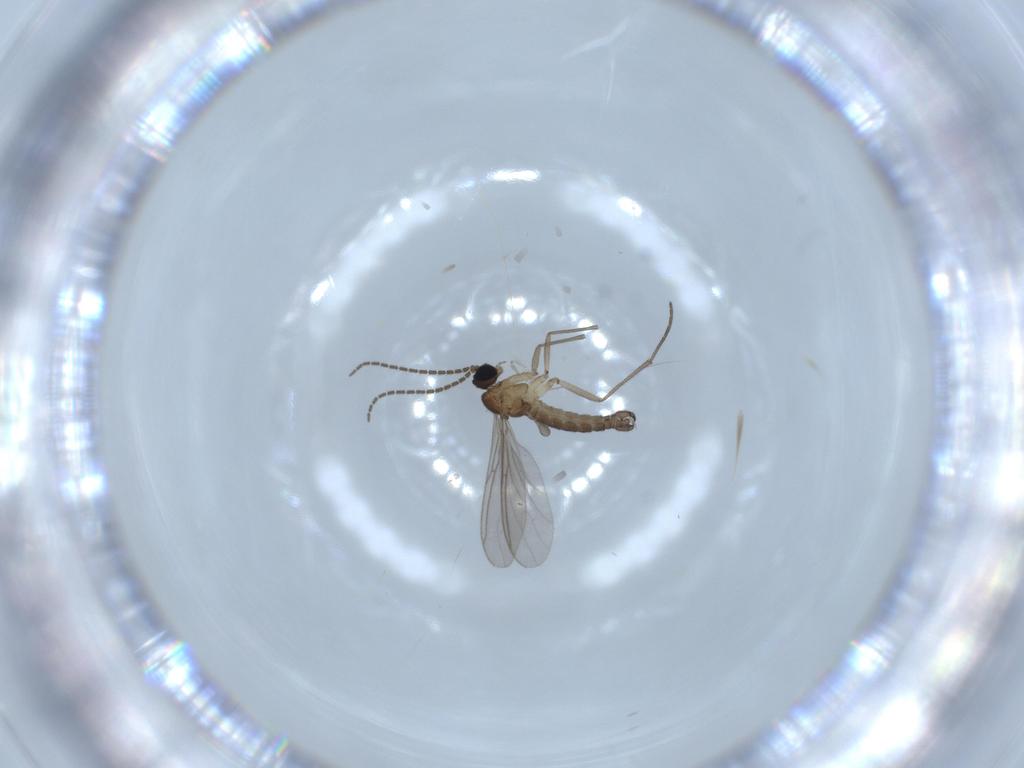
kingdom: Animalia
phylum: Arthropoda
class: Insecta
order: Diptera
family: Sciaridae
